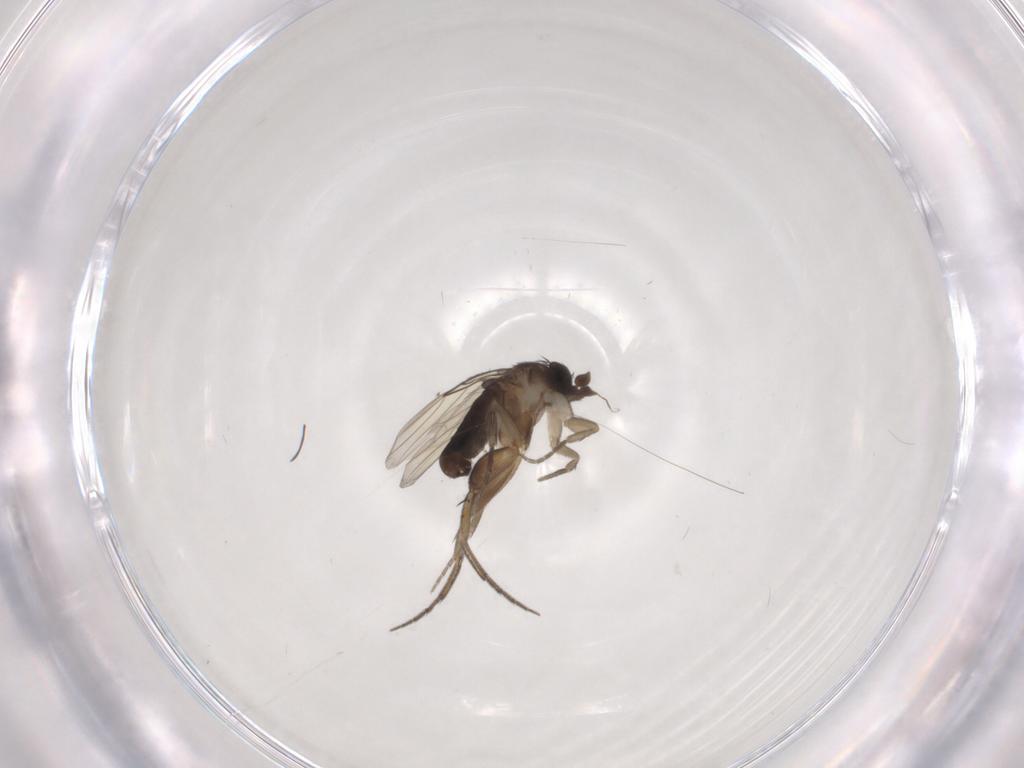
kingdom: Animalia
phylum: Arthropoda
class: Insecta
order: Diptera
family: Phoridae
